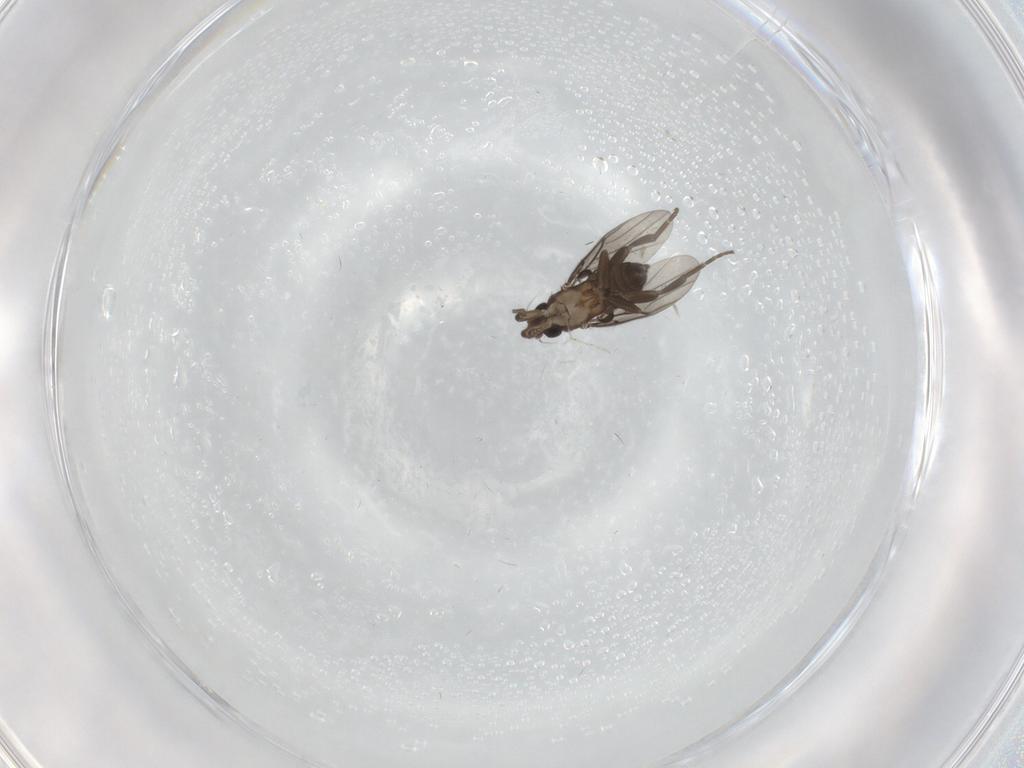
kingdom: Animalia
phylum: Arthropoda
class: Insecta
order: Diptera
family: Phoridae
